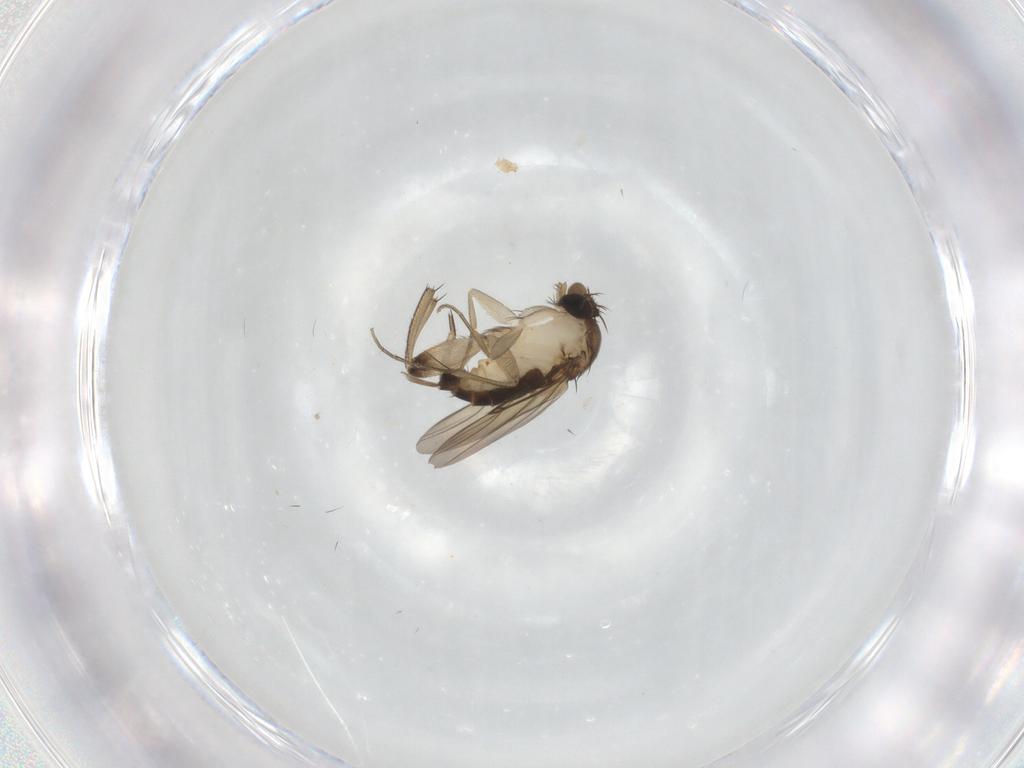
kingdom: Animalia
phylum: Arthropoda
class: Insecta
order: Diptera
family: Phoridae
